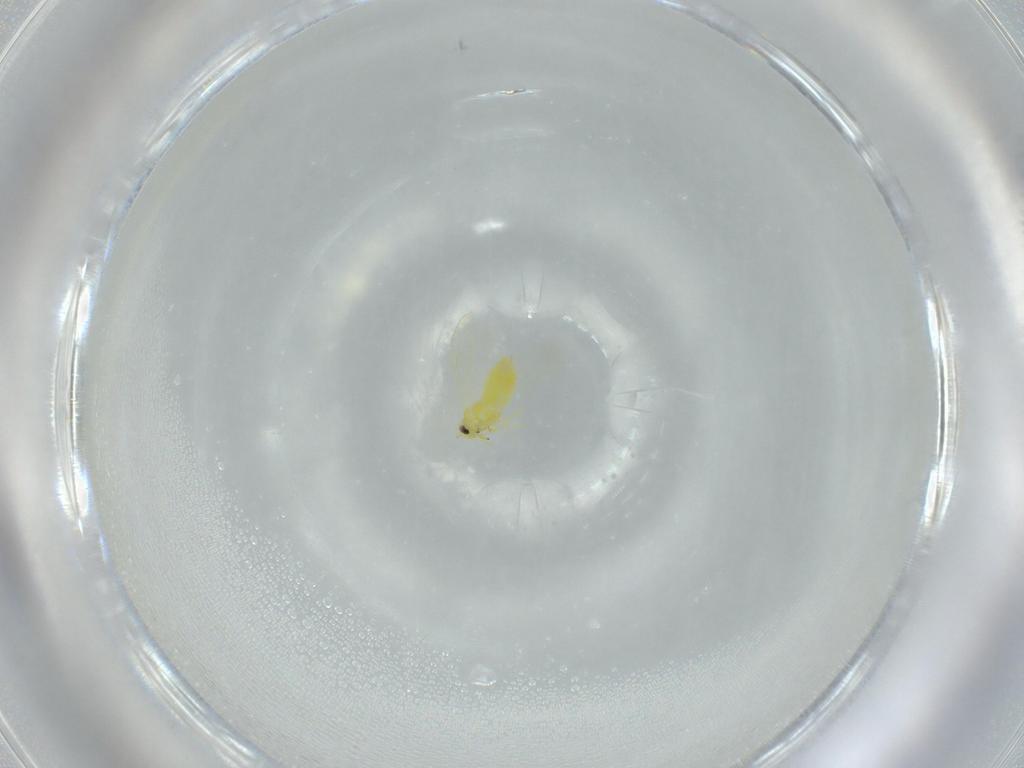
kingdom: Animalia
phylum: Arthropoda
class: Insecta
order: Hemiptera
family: Aleyrodidae
